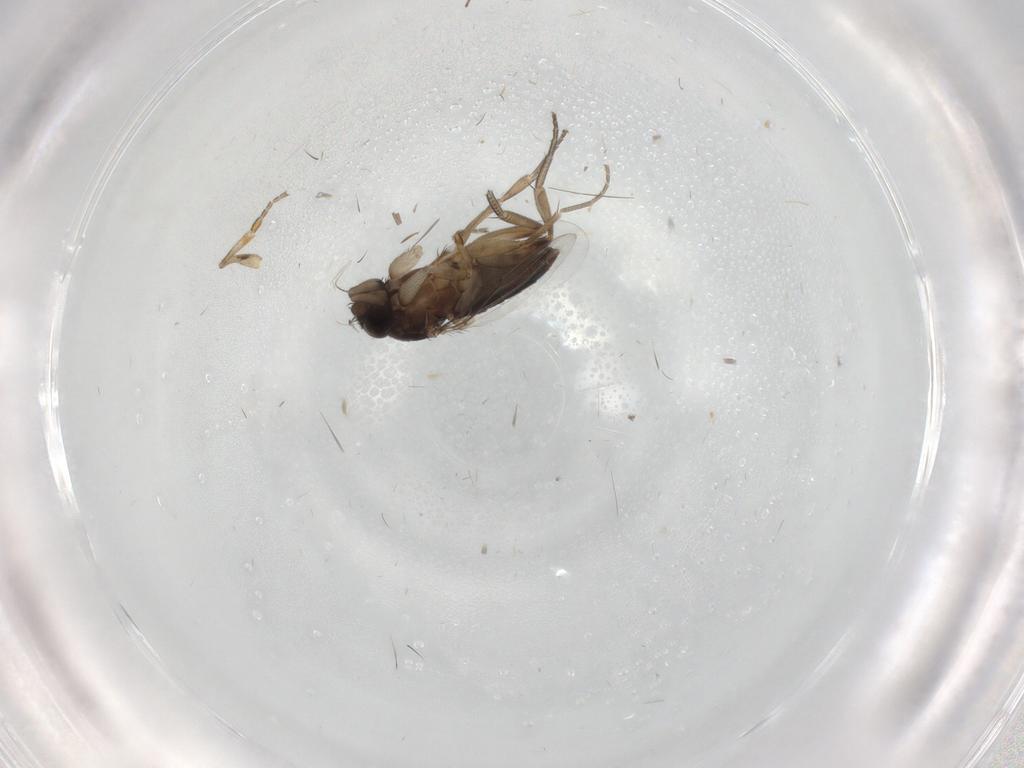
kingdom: Animalia
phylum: Arthropoda
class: Insecta
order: Diptera
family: Phoridae
